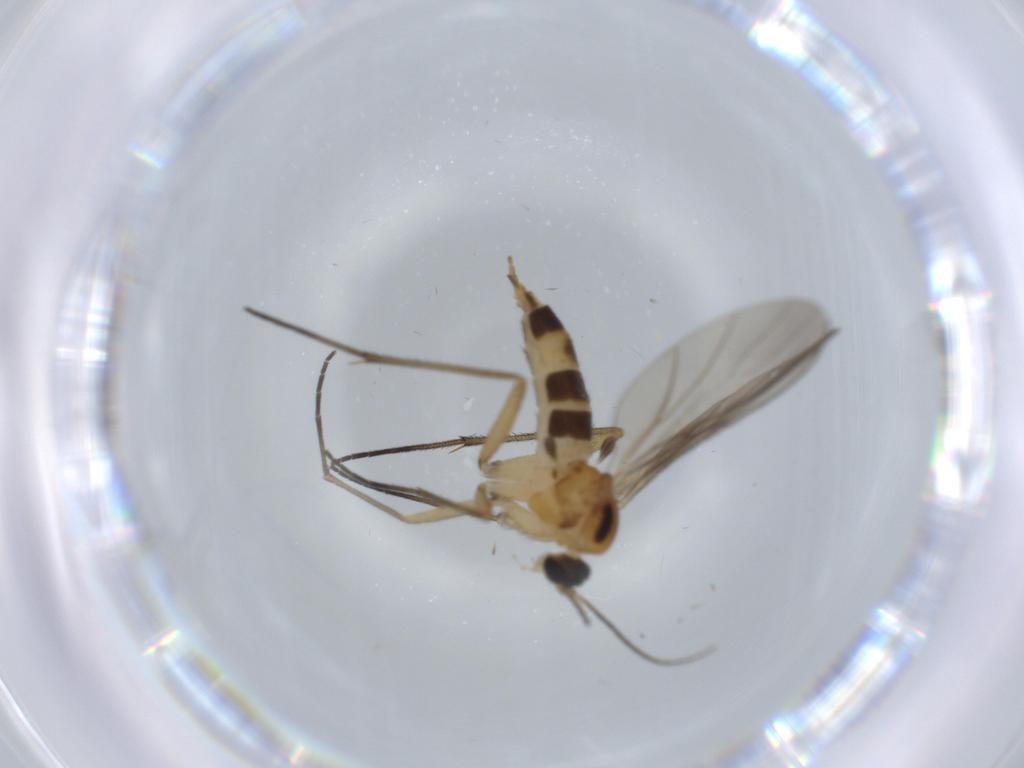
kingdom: Animalia
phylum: Arthropoda
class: Insecta
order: Diptera
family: Sciaridae
